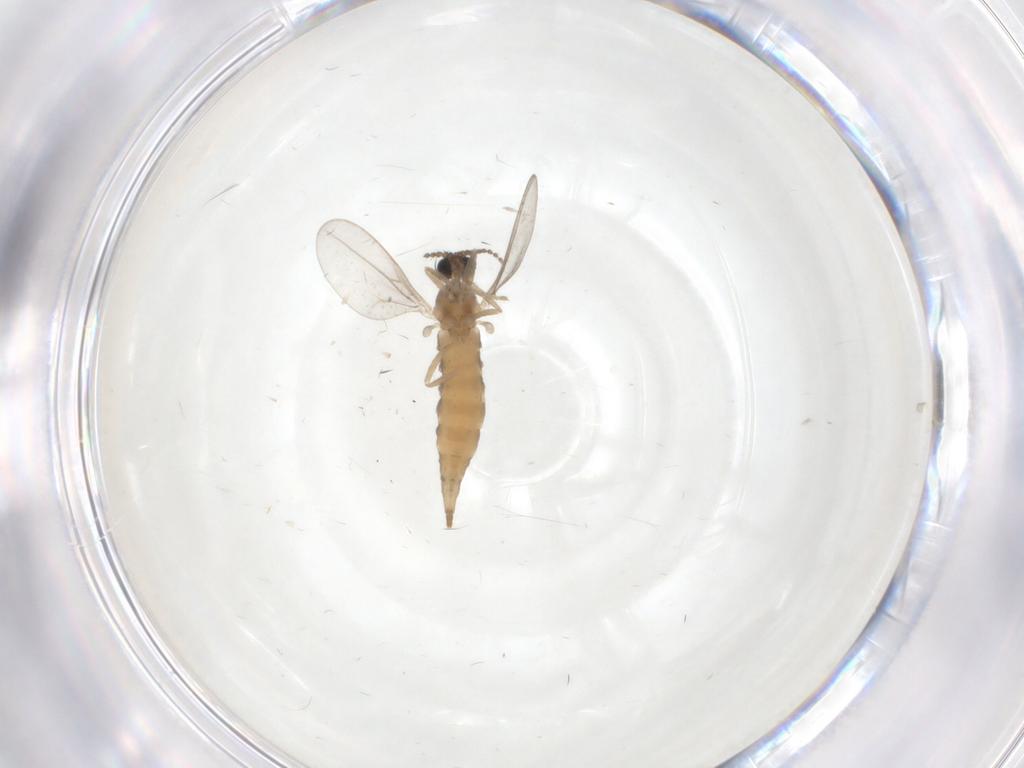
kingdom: Animalia
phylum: Arthropoda
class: Insecta
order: Diptera
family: Cecidomyiidae
